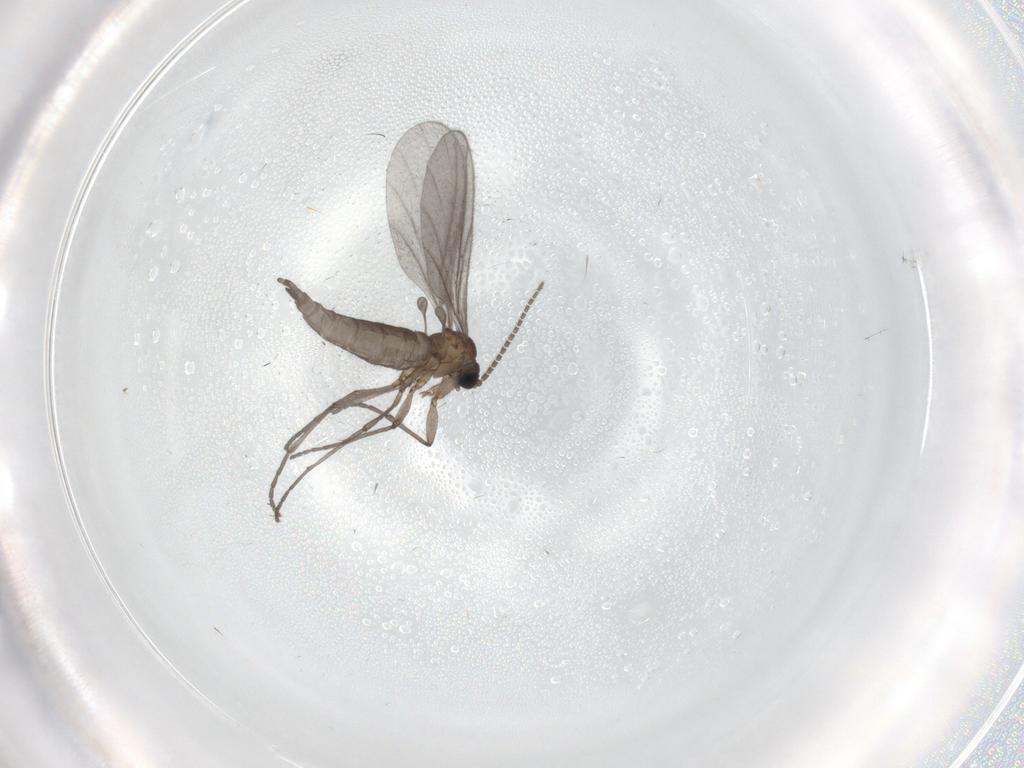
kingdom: Animalia
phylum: Arthropoda
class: Insecta
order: Diptera
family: Sciaridae
